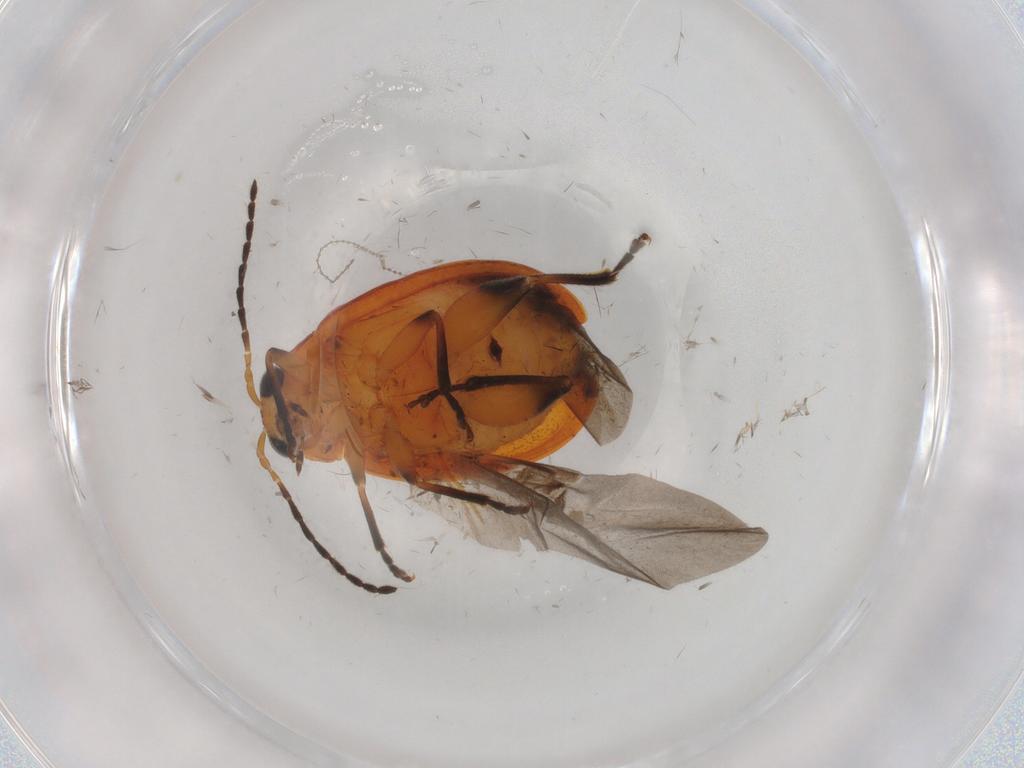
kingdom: Animalia
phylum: Arthropoda
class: Insecta
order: Coleoptera
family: Chrysomelidae
